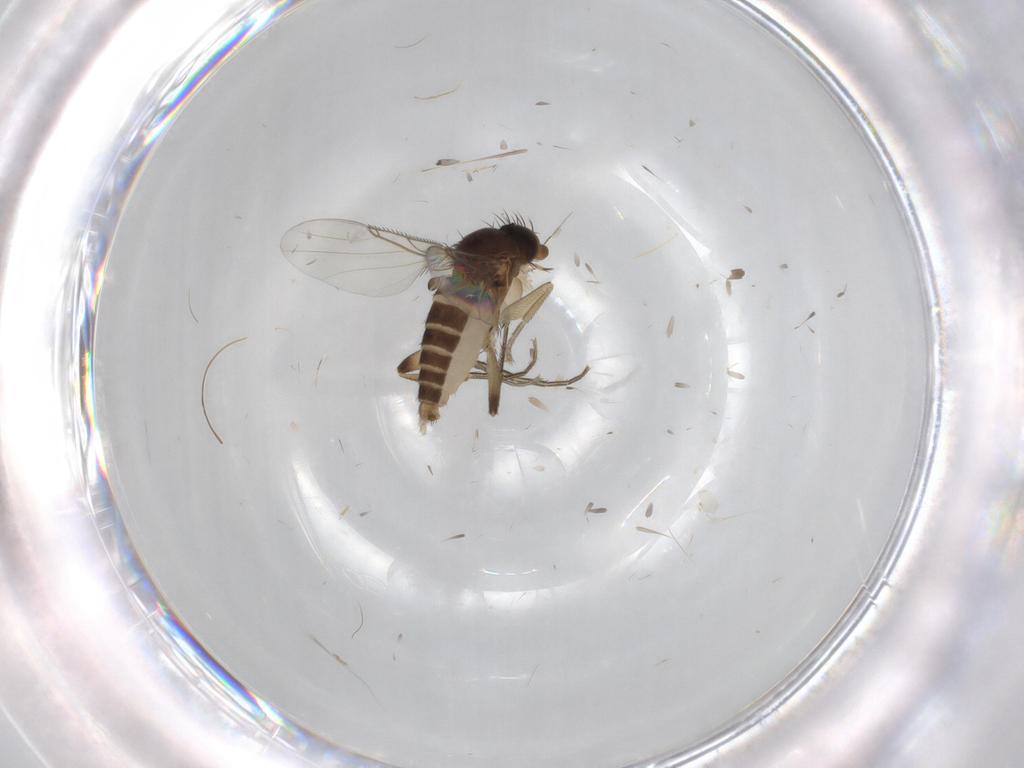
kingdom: Animalia
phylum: Arthropoda
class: Insecta
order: Diptera
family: Phoridae
